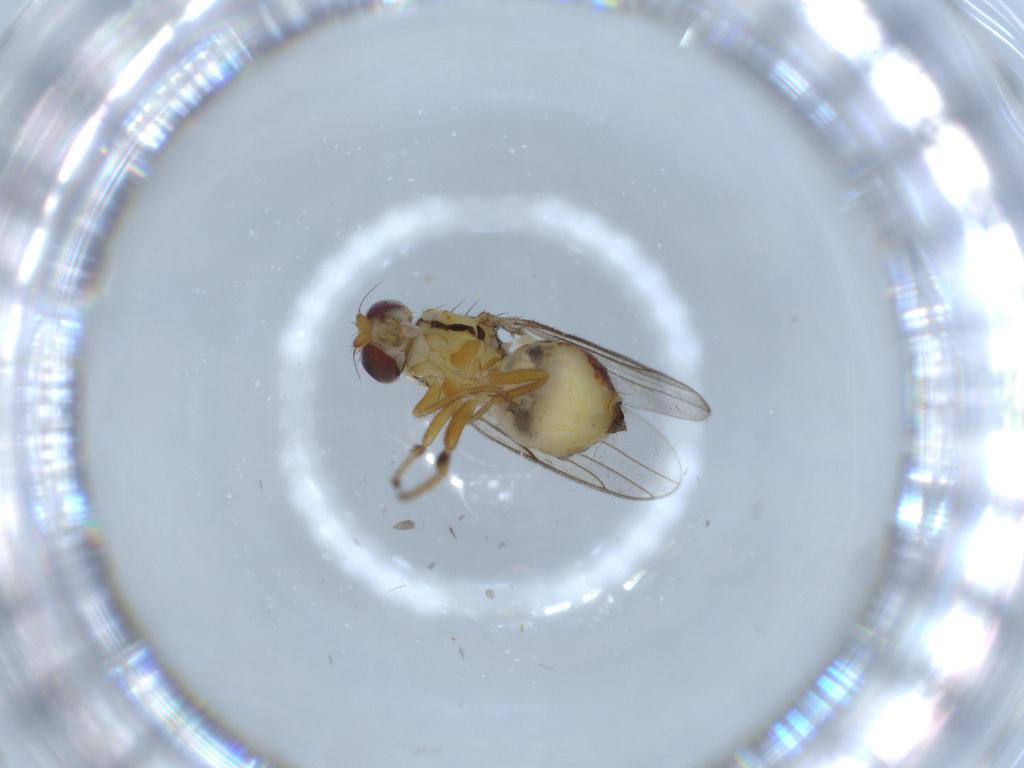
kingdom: Animalia
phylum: Arthropoda
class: Insecta
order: Diptera
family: Chloropidae
